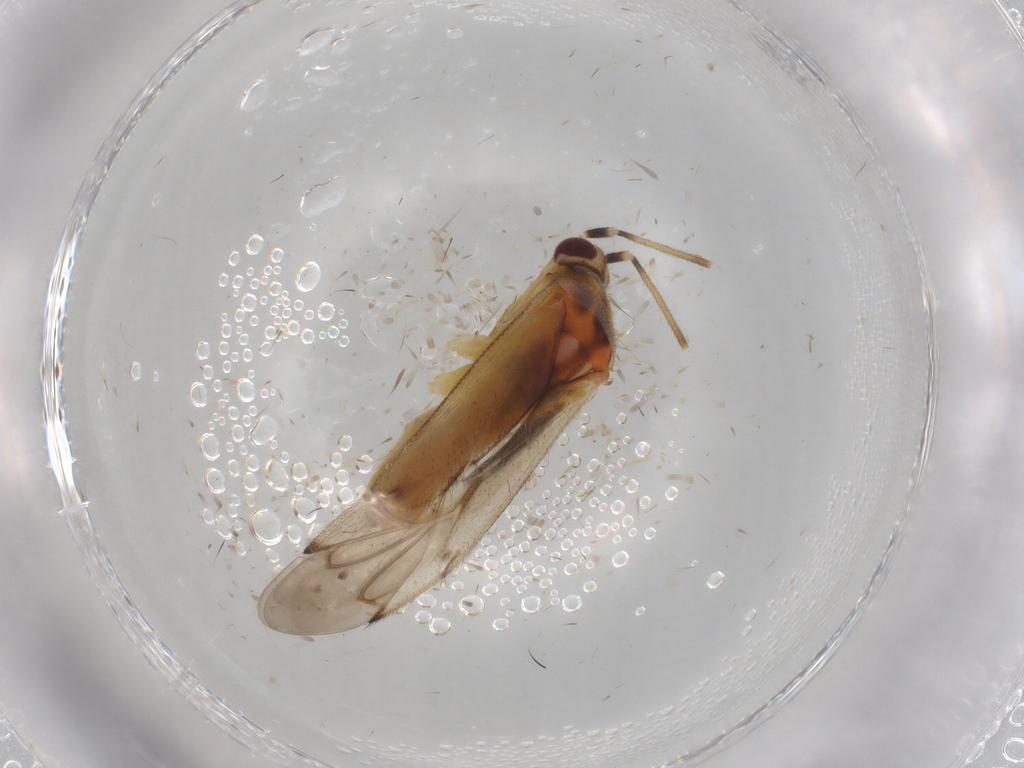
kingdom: Animalia
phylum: Arthropoda
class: Insecta
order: Hemiptera
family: Miridae
